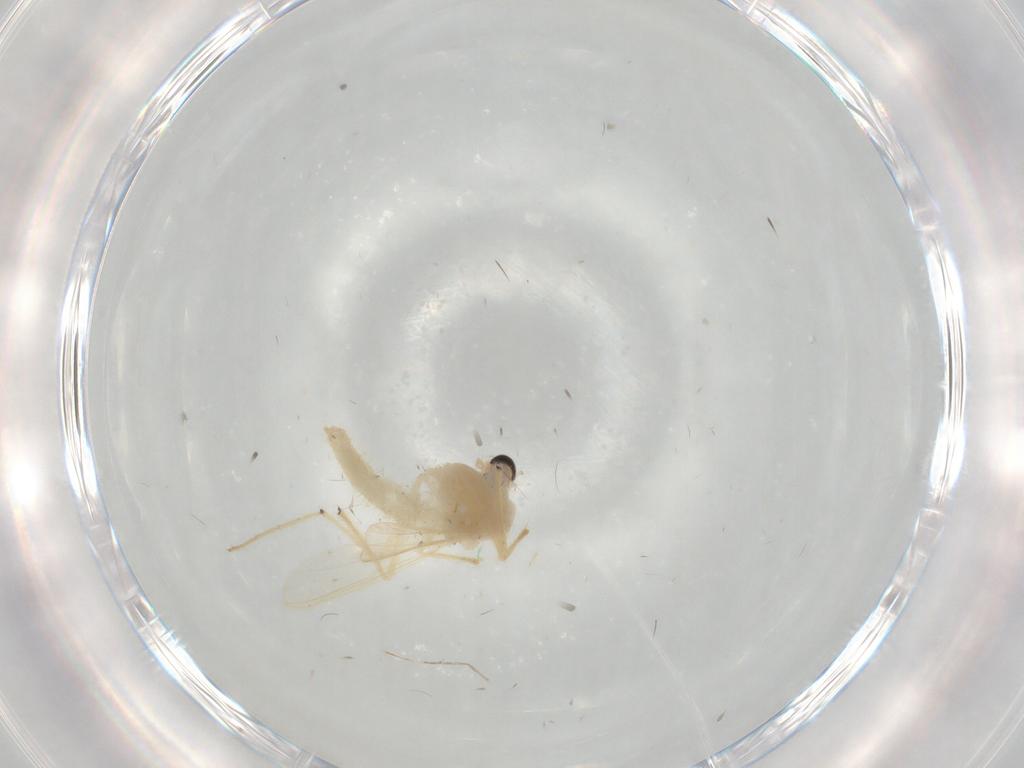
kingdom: Animalia
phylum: Arthropoda
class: Insecta
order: Diptera
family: Chironomidae
